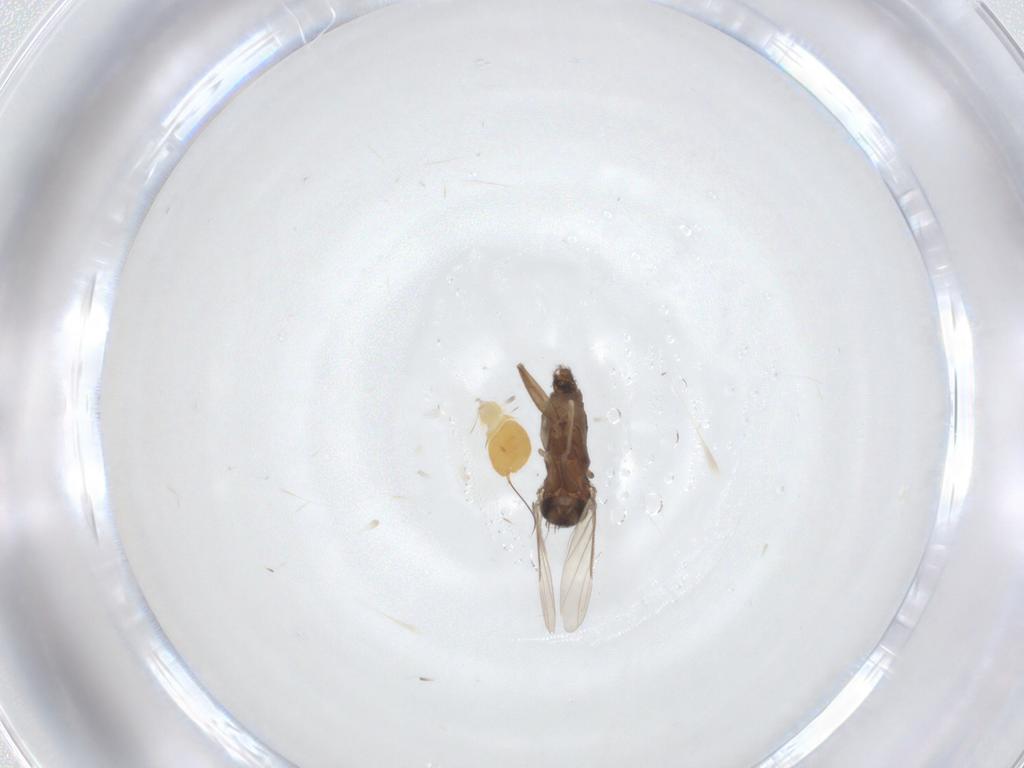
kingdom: Animalia
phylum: Arthropoda
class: Insecta
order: Diptera
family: Phoridae
